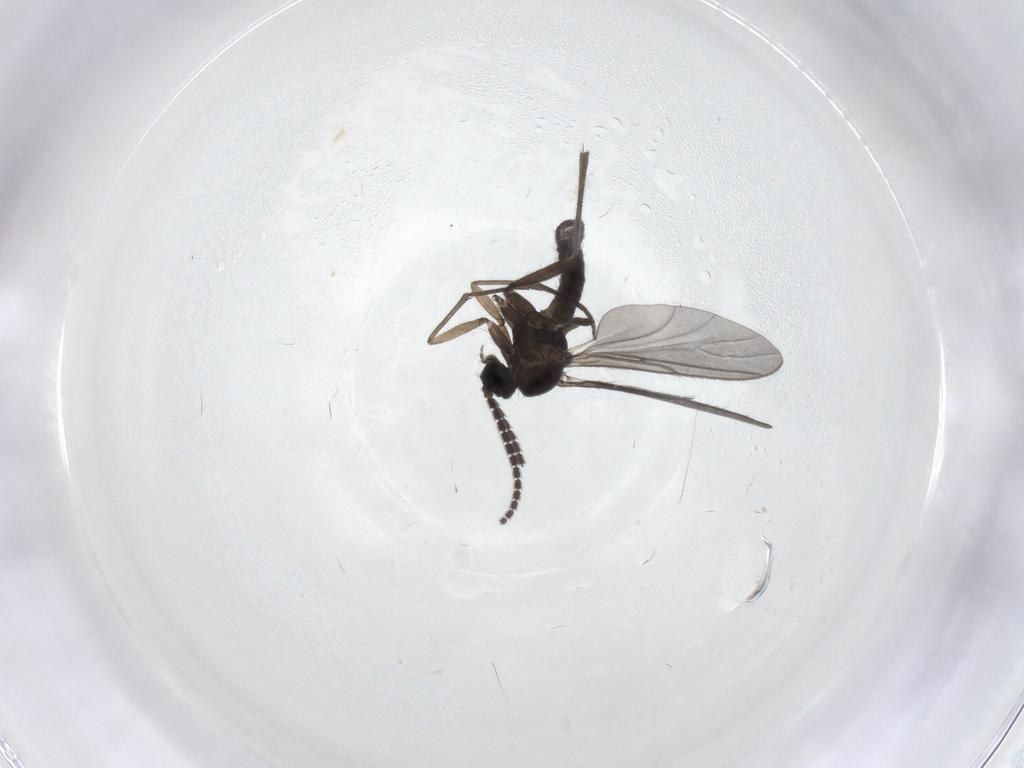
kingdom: Animalia
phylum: Arthropoda
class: Insecta
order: Diptera
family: Sciaridae
